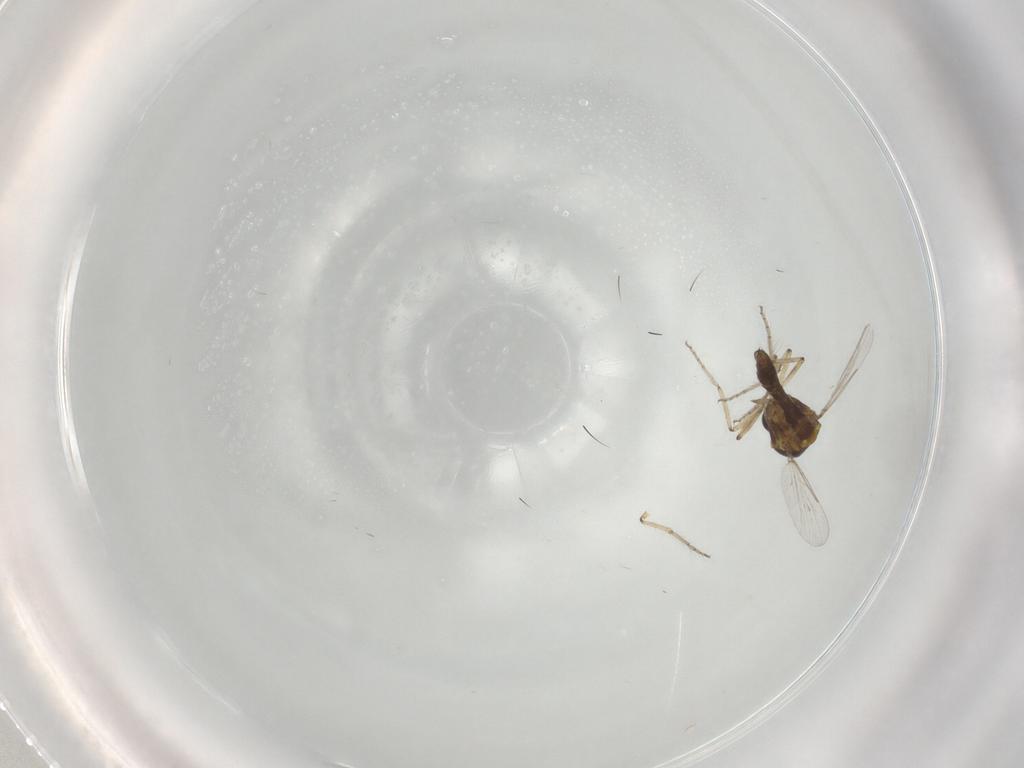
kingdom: Animalia
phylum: Arthropoda
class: Insecta
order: Diptera
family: Ceratopogonidae
